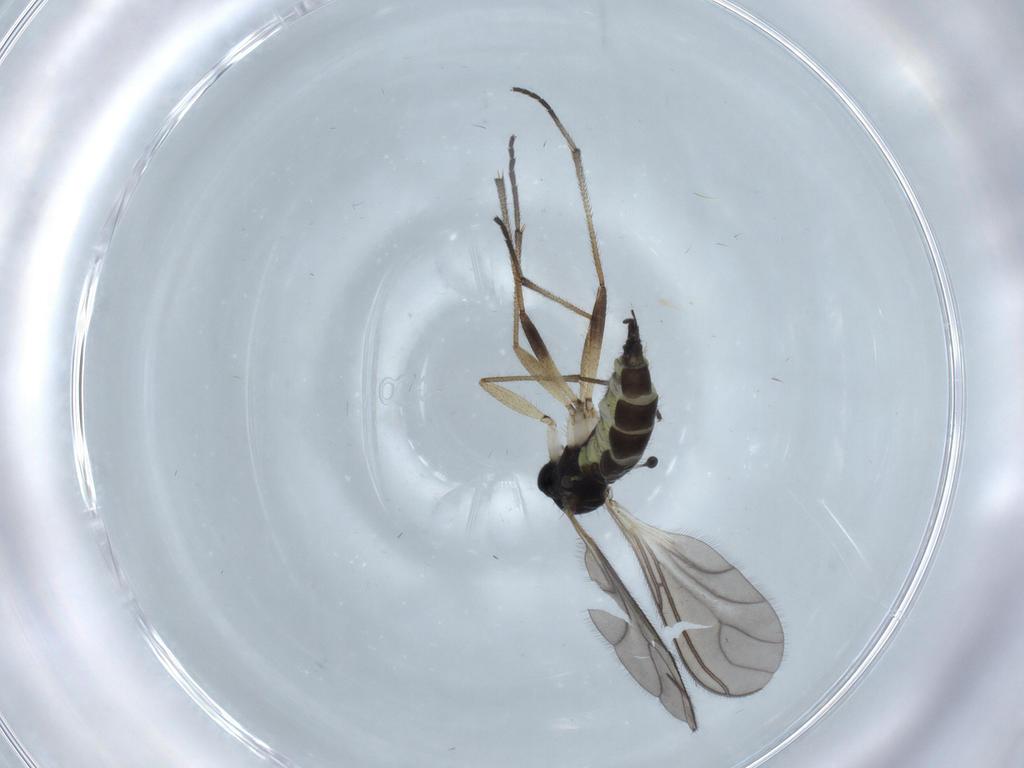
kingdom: Animalia
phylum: Arthropoda
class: Insecta
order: Diptera
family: Sciaridae
